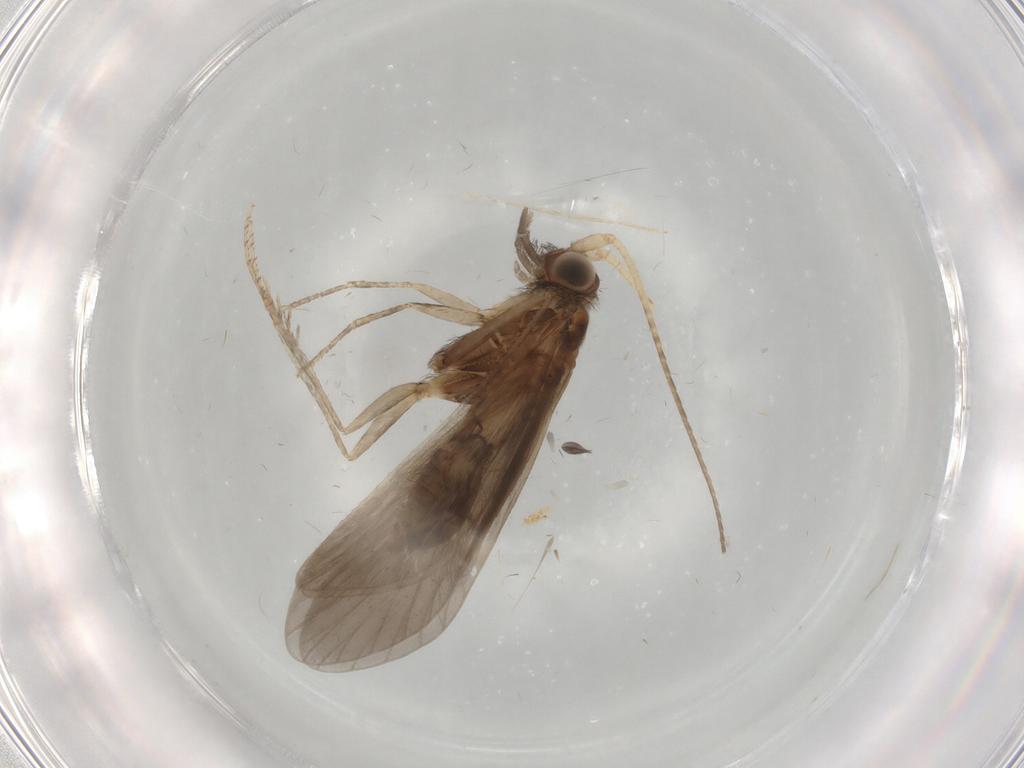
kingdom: Animalia
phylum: Arthropoda
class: Insecta
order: Trichoptera
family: Helicopsychidae
